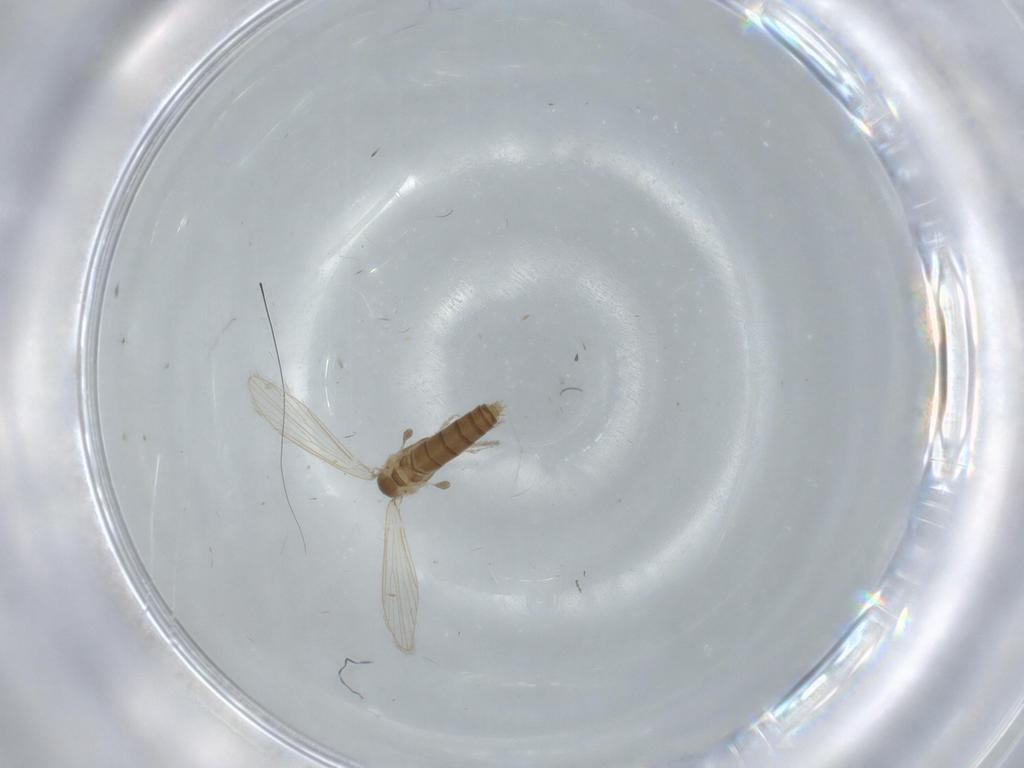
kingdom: Animalia
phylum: Arthropoda
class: Insecta
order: Diptera
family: Psychodidae
